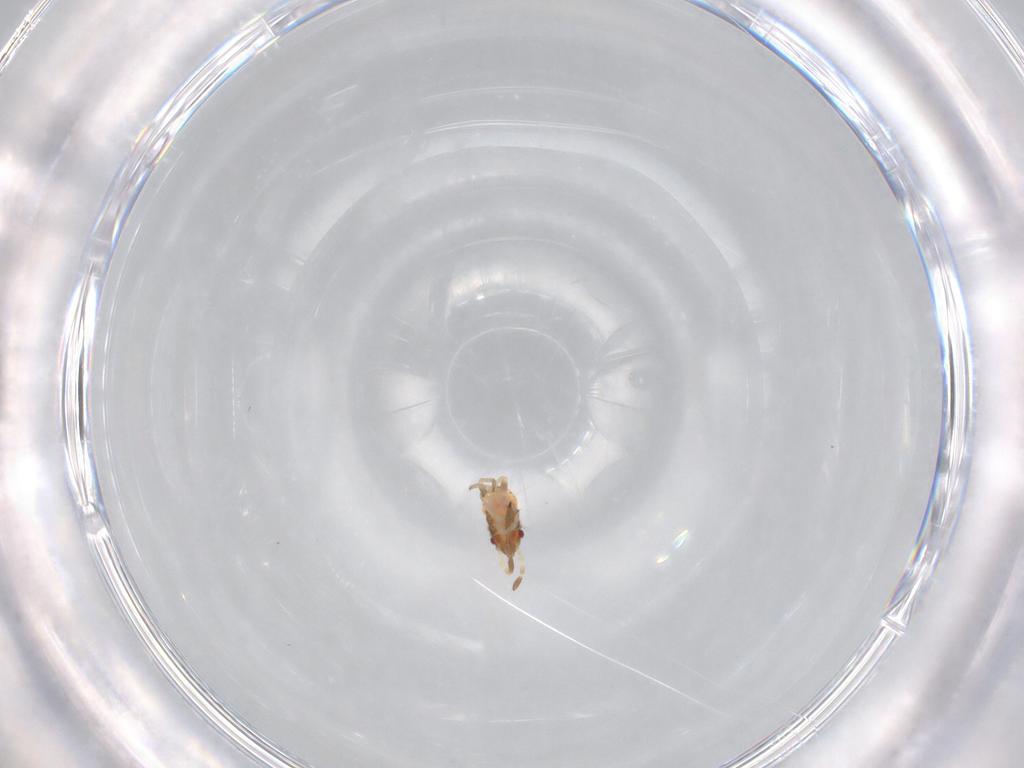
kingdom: Animalia
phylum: Arthropoda
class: Insecta
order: Hemiptera
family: Lygaeidae
